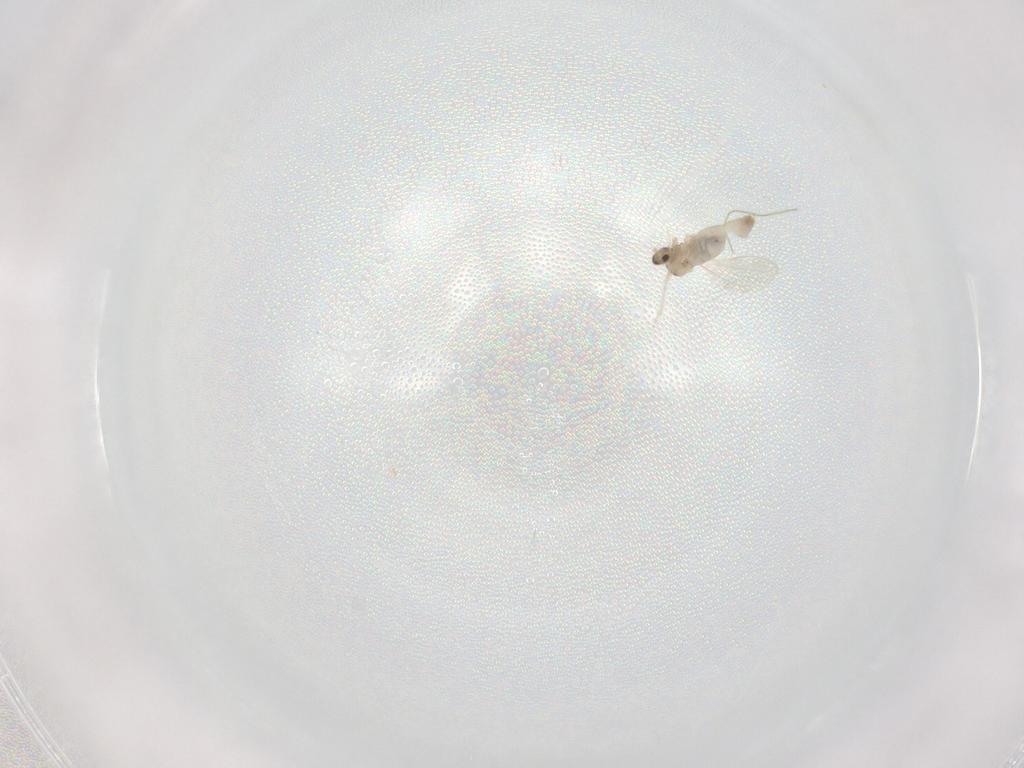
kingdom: Animalia
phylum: Arthropoda
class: Insecta
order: Diptera
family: Cecidomyiidae
